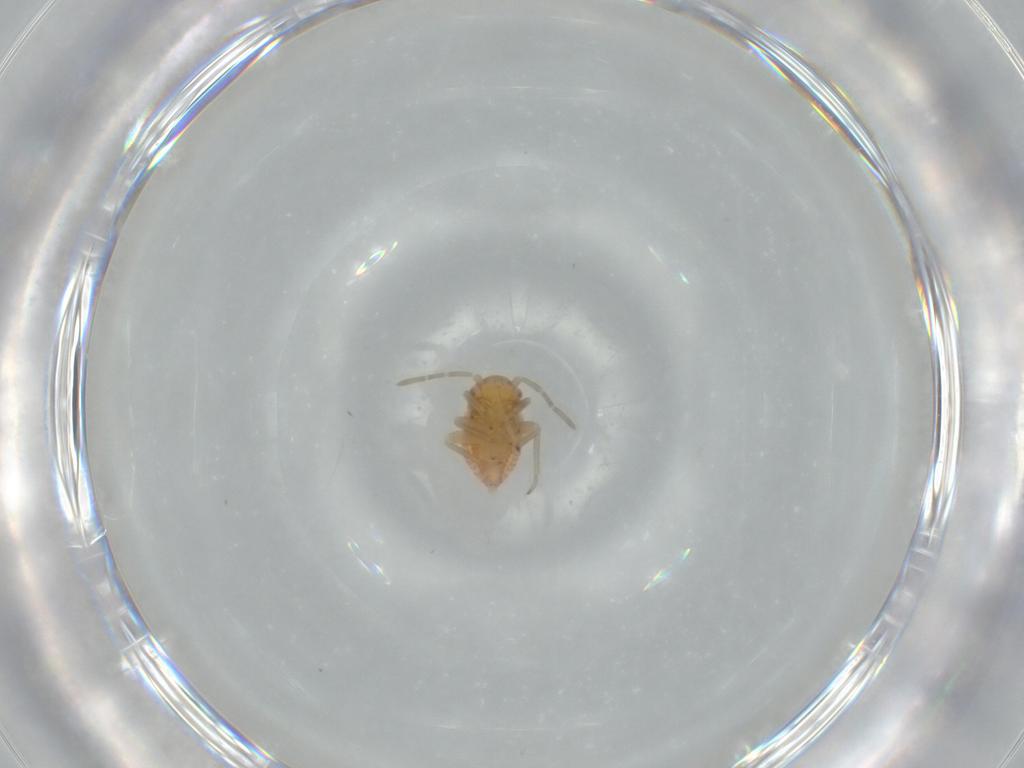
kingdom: Animalia
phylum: Arthropoda
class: Insecta
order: Hemiptera
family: Miridae
